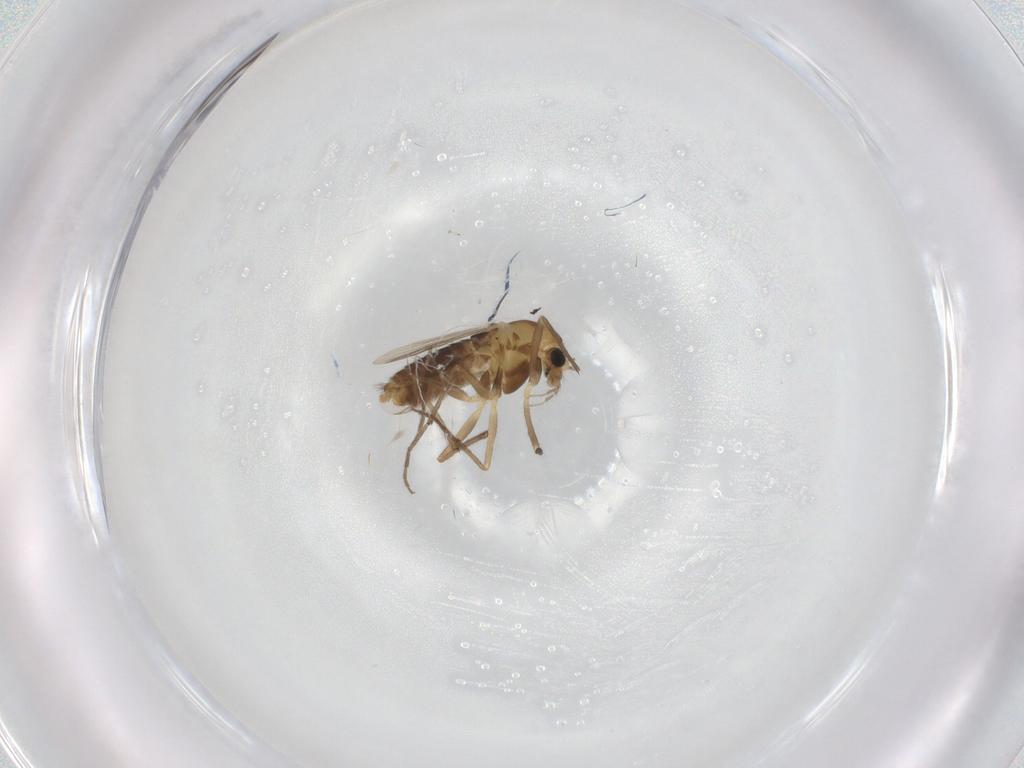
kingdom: Animalia
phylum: Arthropoda
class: Insecta
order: Diptera
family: Chironomidae
